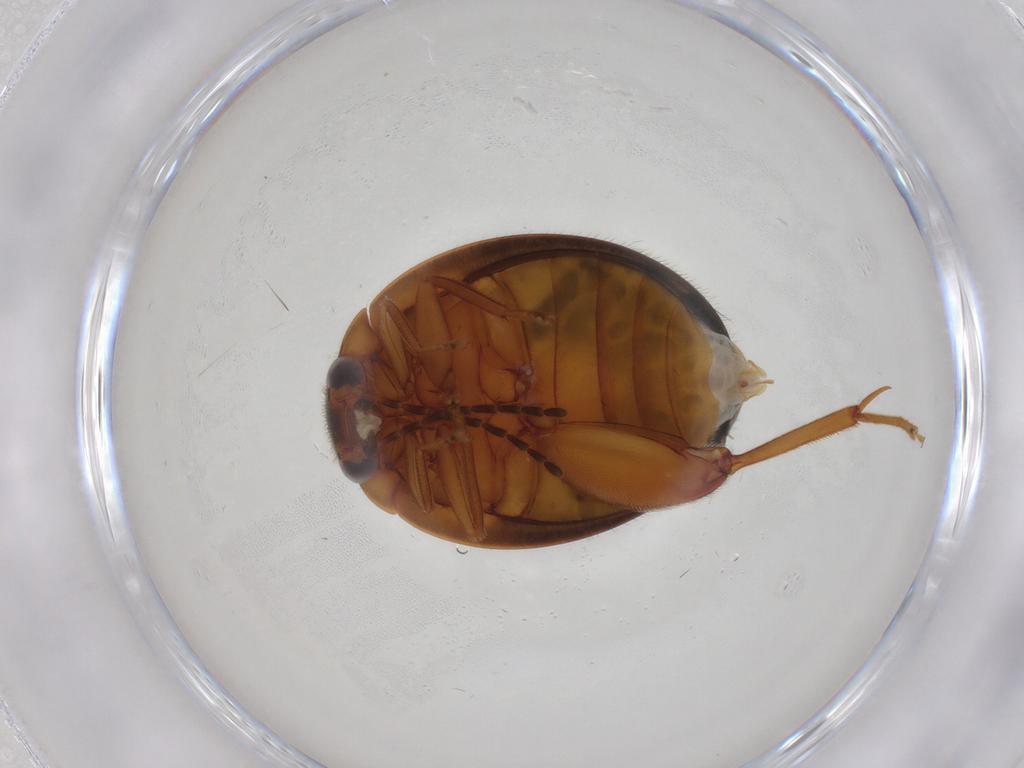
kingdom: Animalia
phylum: Arthropoda
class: Insecta
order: Coleoptera
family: Scirtidae
